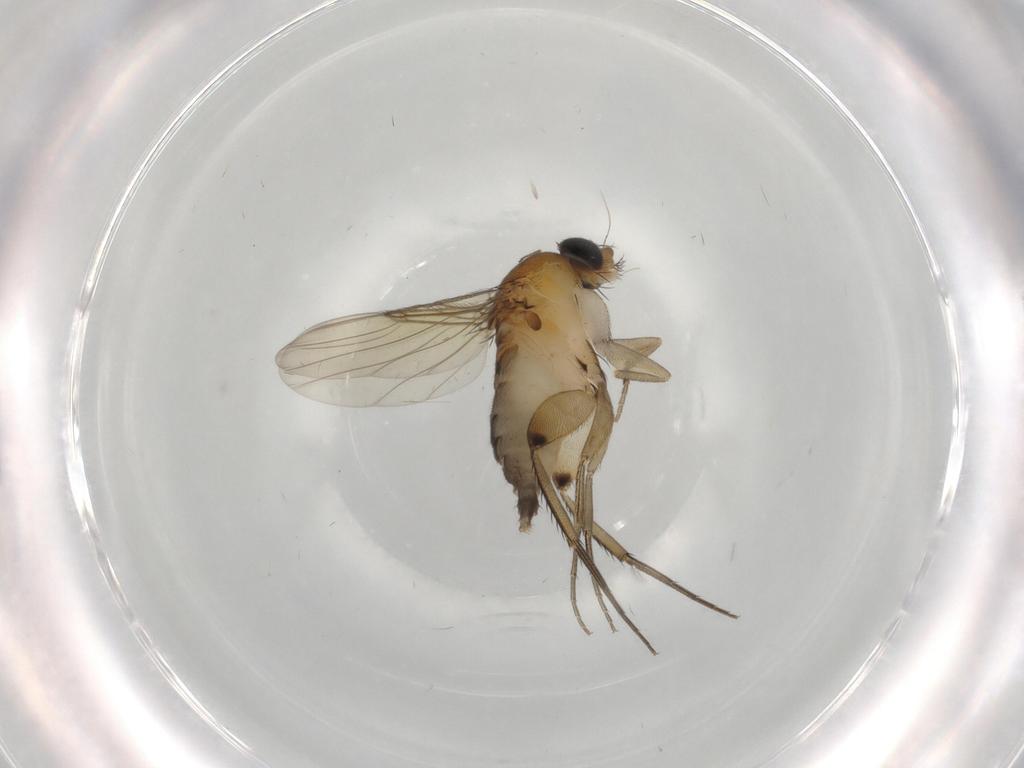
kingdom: Animalia
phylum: Arthropoda
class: Insecta
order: Diptera
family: Phoridae
